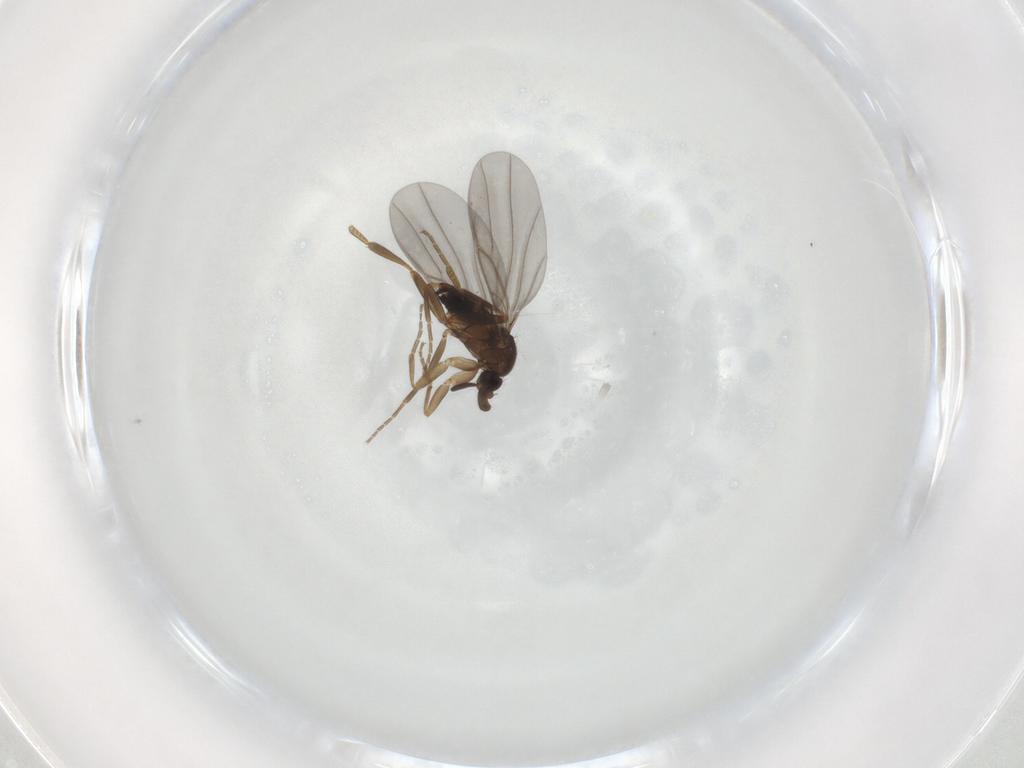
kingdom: Animalia
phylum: Arthropoda
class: Insecta
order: Diptera
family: Phoridae
